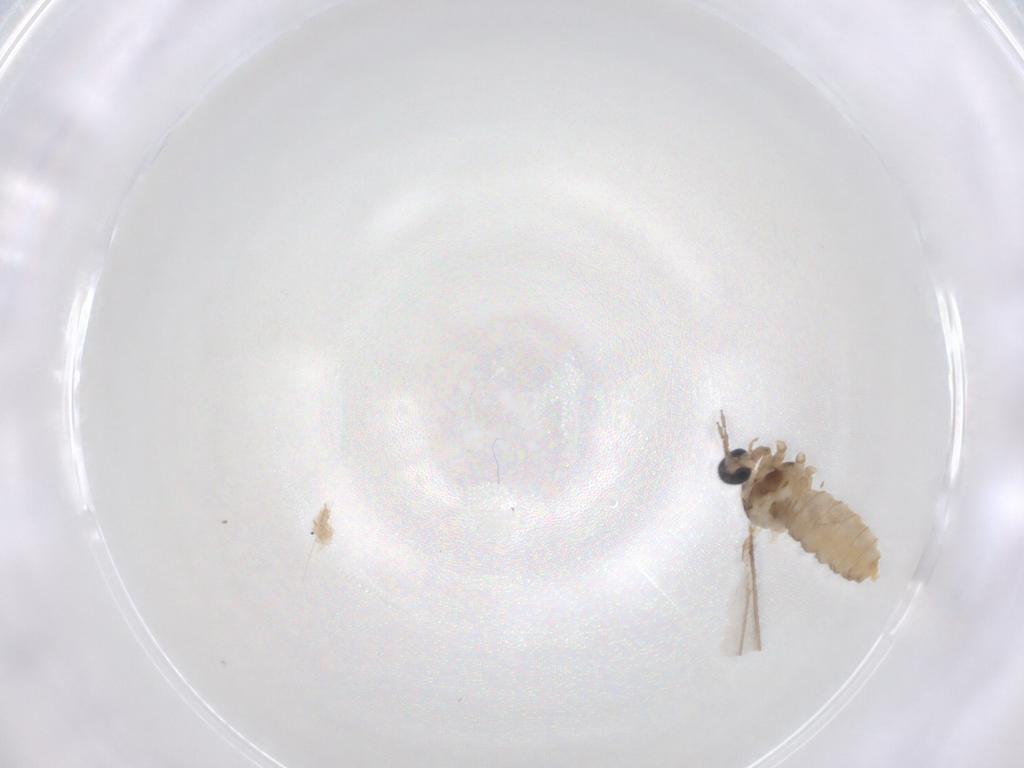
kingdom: Animalia
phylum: Arthropoda
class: Insecta
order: Diptera
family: Cecidomyiidae
